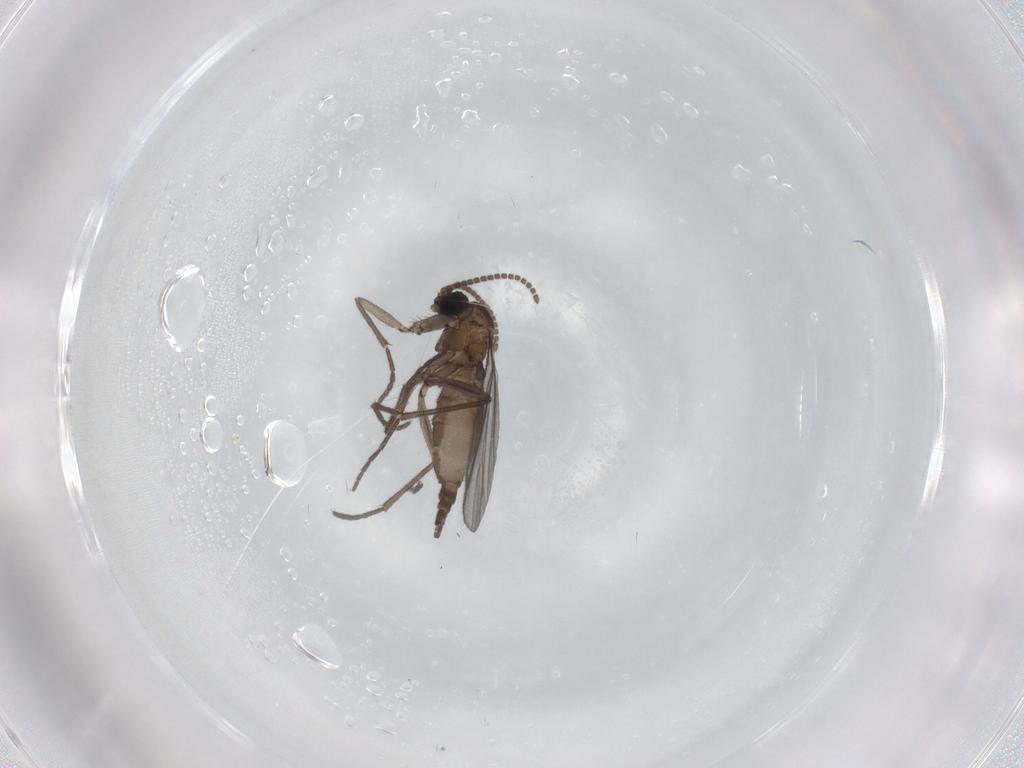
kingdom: Animalia
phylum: Arthropoda
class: Insecta
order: Diptera
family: Sciaridae
